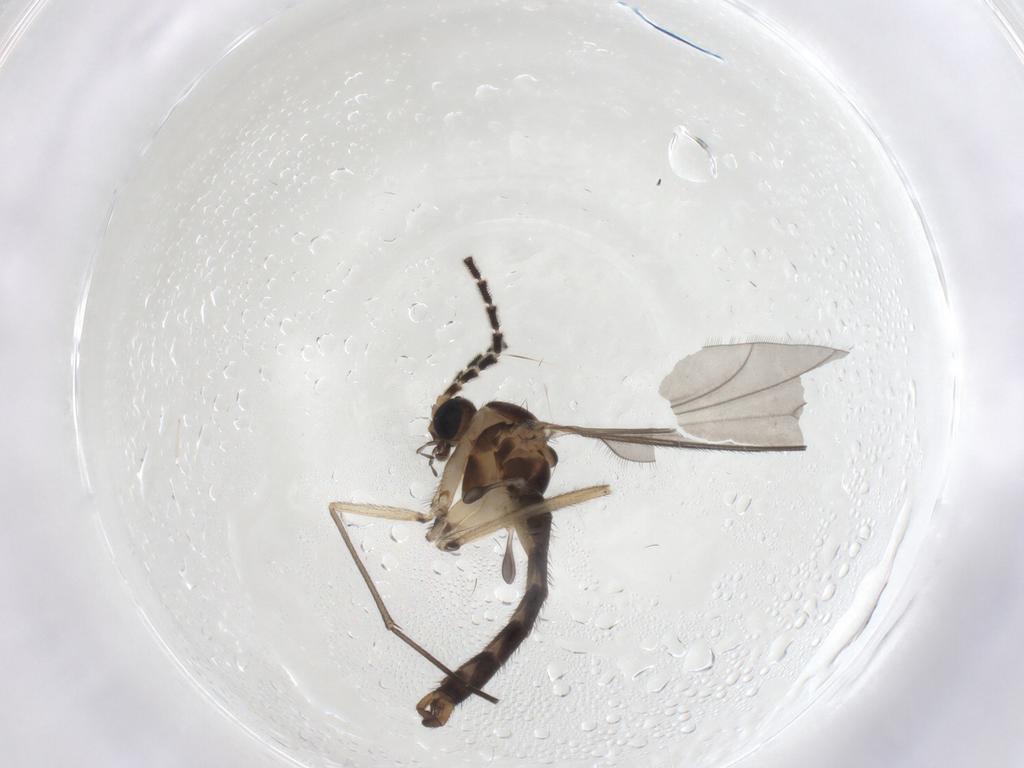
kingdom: Animalia
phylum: Arthropoda
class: Insecta
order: Diptera
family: Sciaridae
